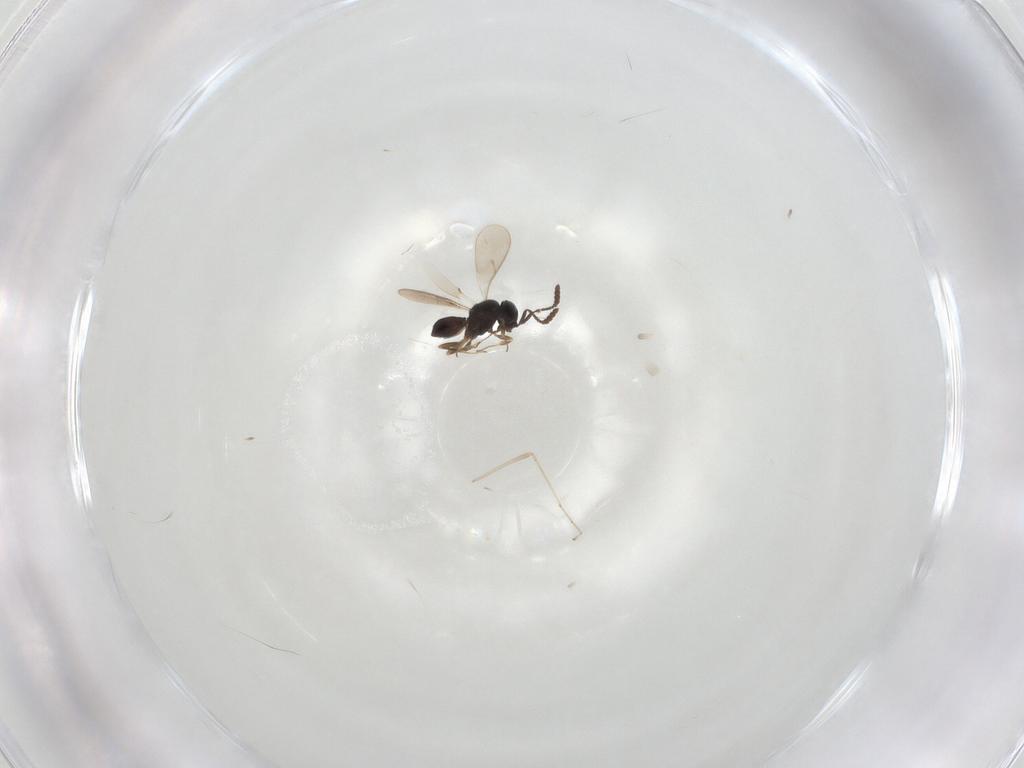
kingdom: Animalia
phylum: Arthropoda
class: Insecta
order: Hymenoptera
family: Scelionidae
